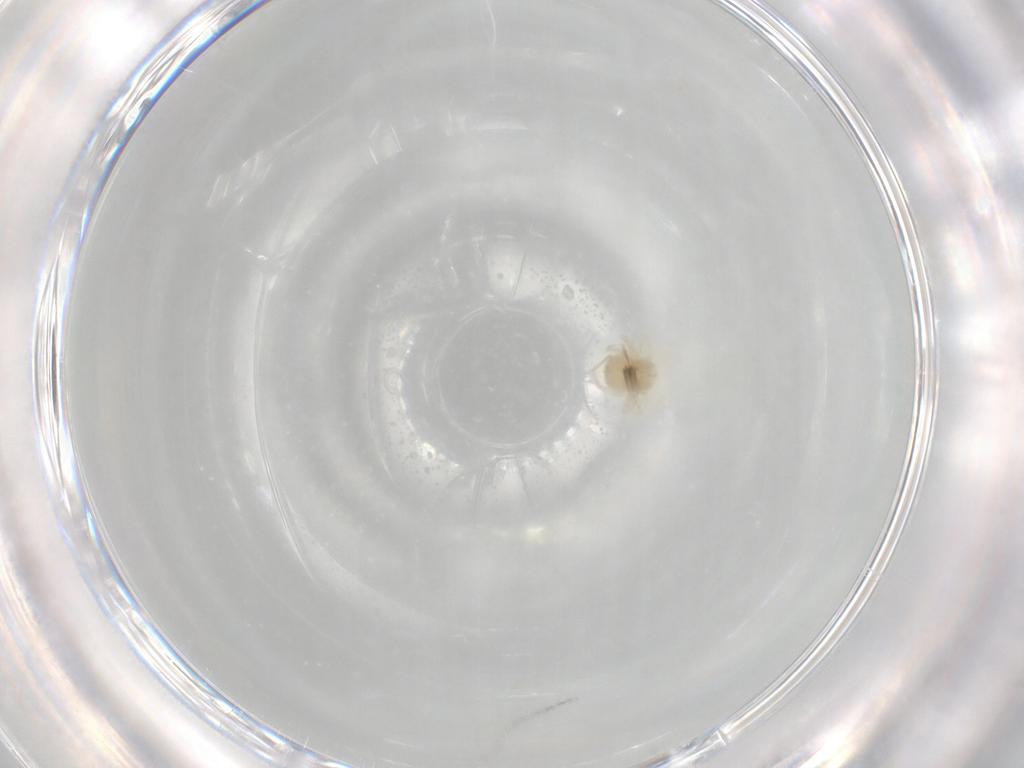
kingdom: Animalia
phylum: Arthropoda
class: Arachnida
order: Trombidiformes
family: Anystidae
